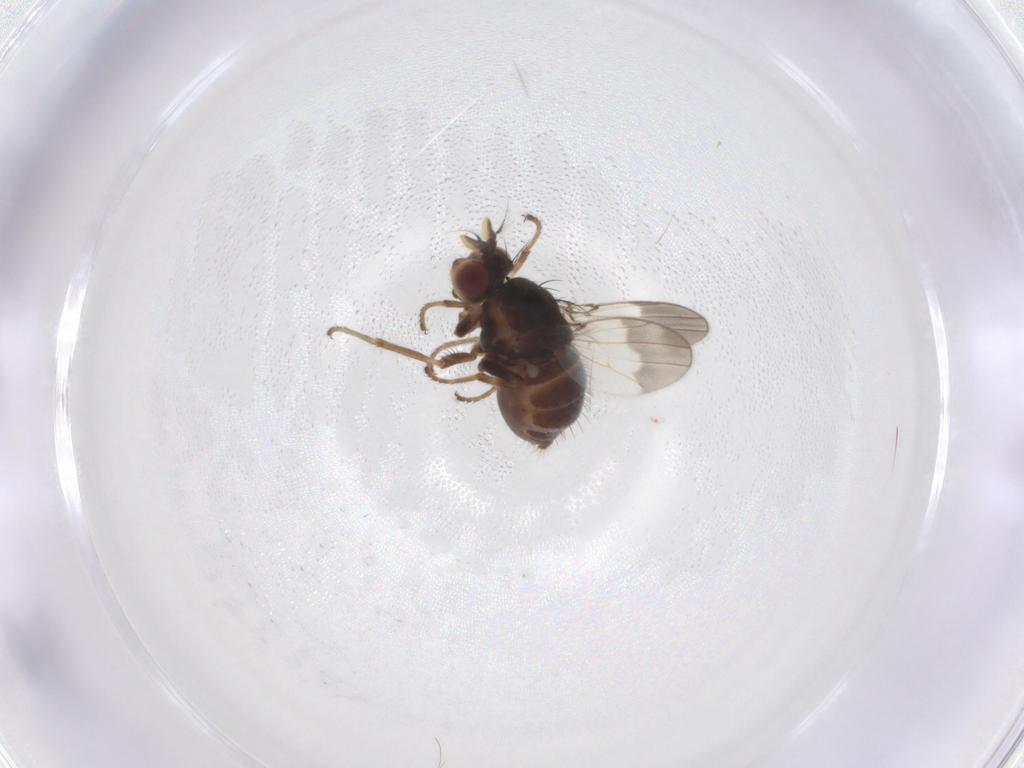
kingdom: Animalia
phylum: Arthropoda
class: Insecta
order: Diptera
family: Ephydridae
